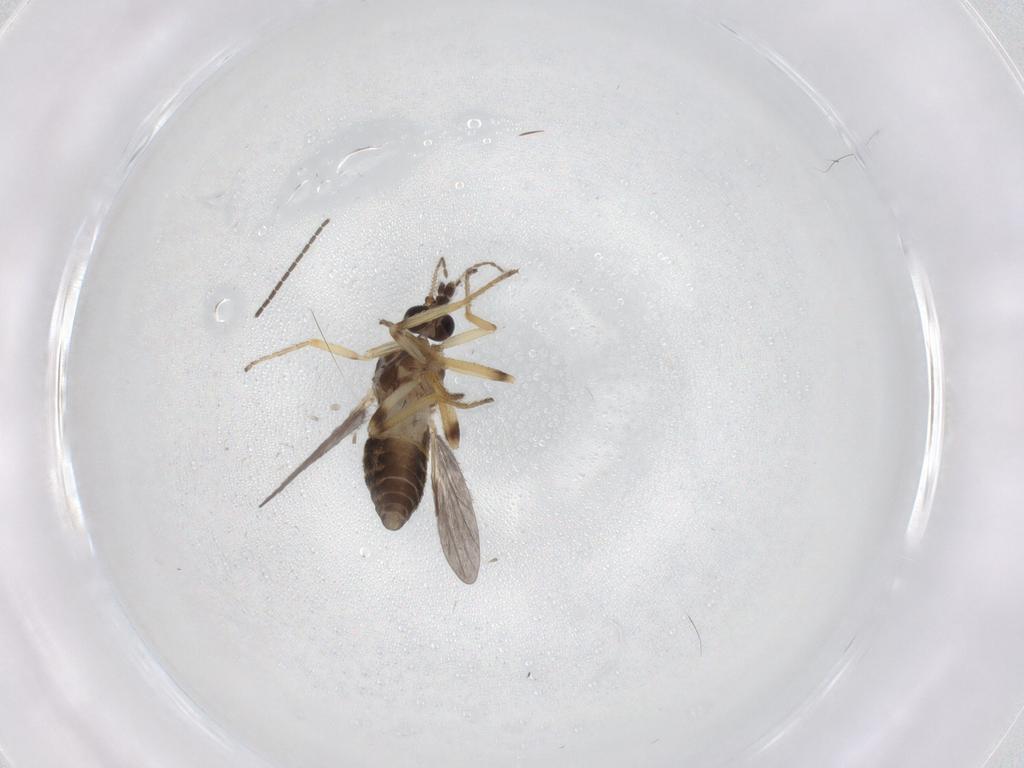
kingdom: Animalia
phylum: Arthropoda
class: Insecta
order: Diptera
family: Ceratopogonidae
